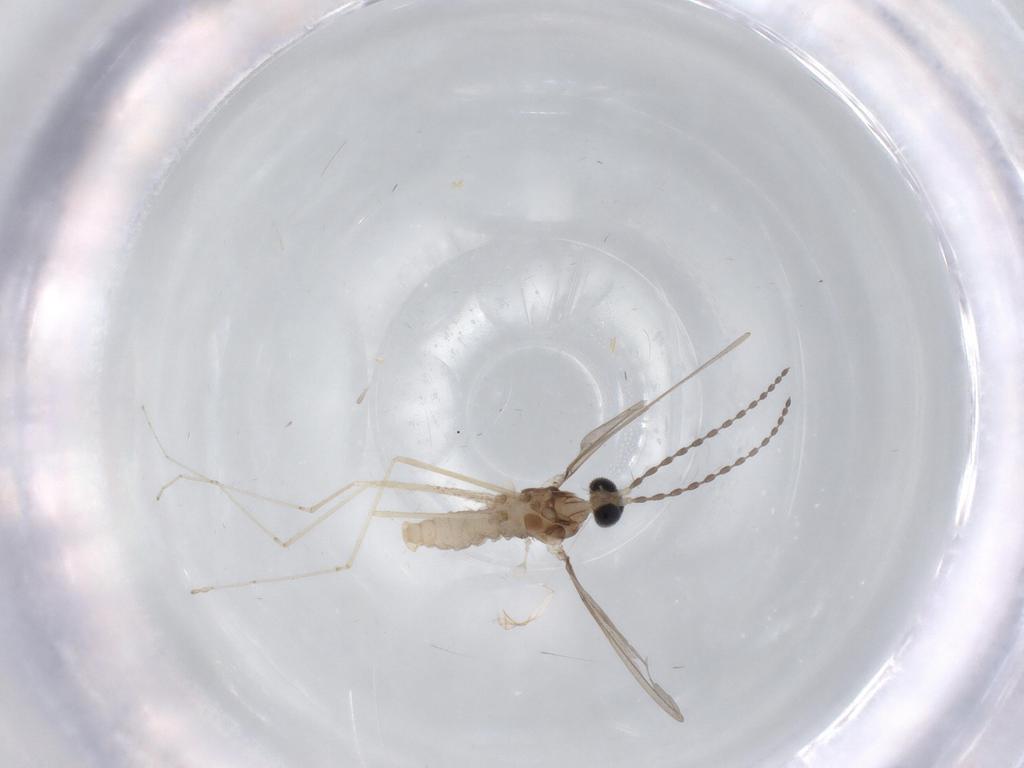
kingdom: Animalia
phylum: Arthropoda
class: Insecta
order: Diptera
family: Cecidomyiidae
